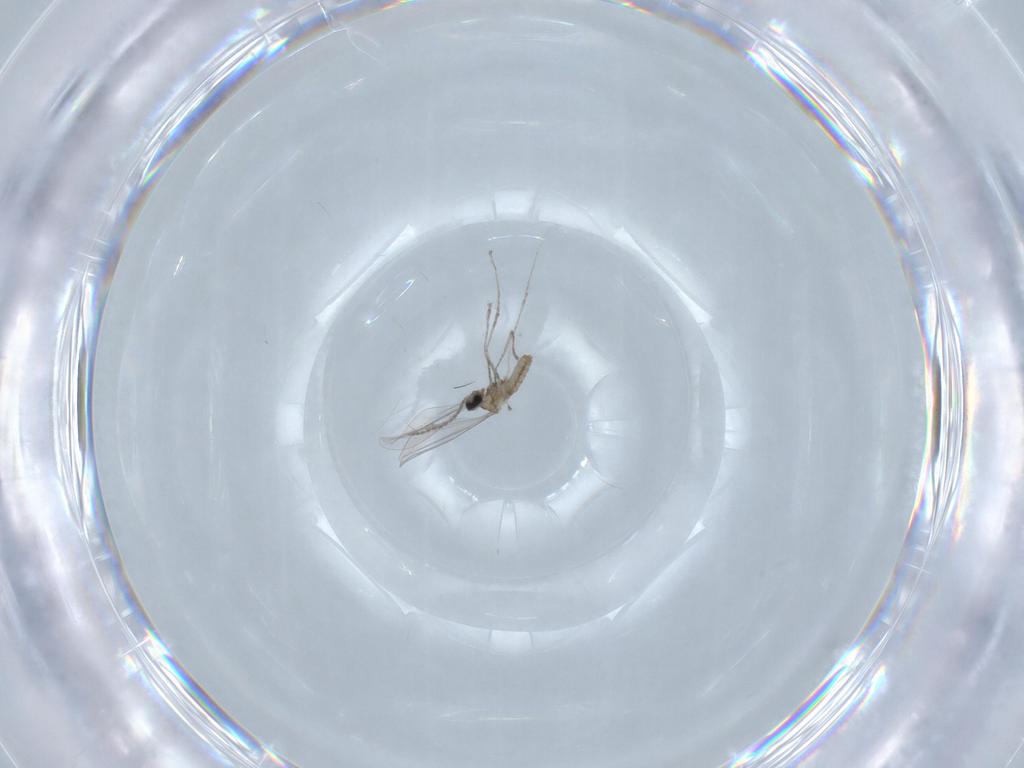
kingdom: Animalia
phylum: Arthropoda
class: Insecta
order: Diptera
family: Cecidomyiidae
